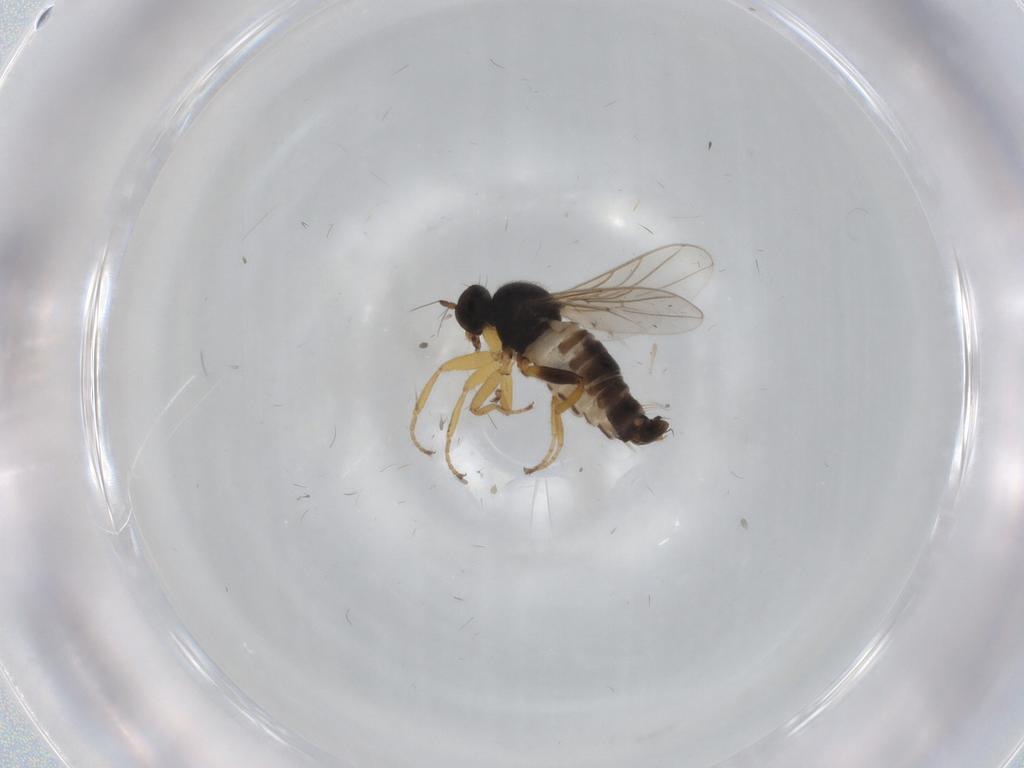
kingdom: Animalia
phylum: Arthropoda
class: Insecta
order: Diptera
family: Hybotidae
